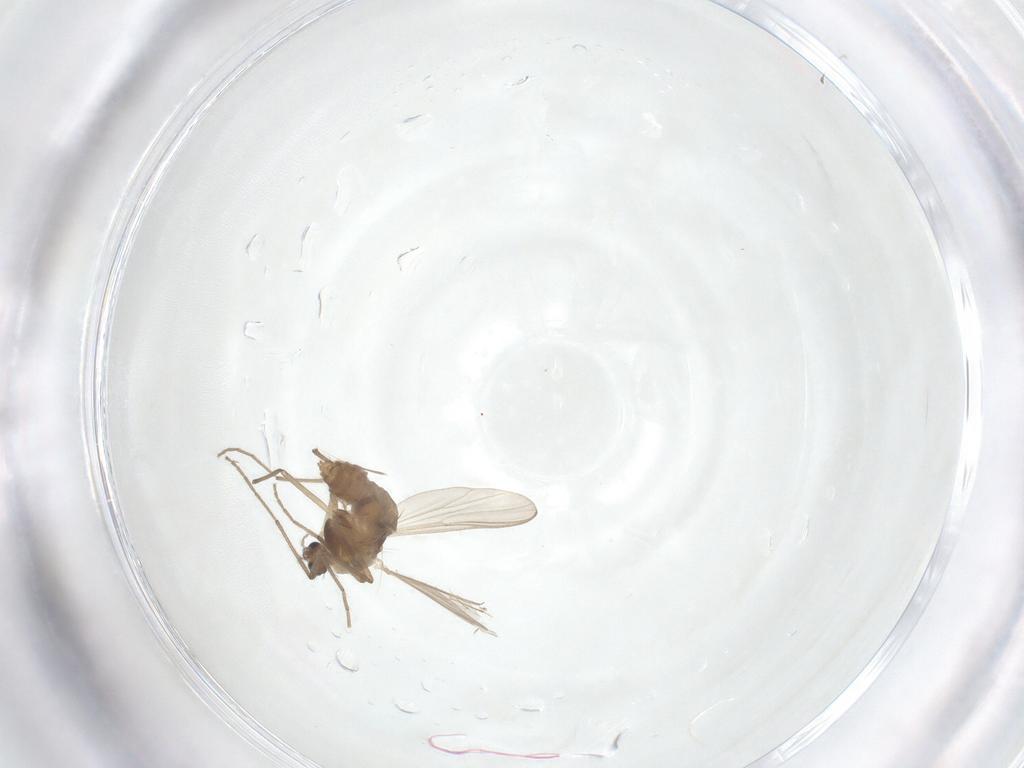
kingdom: Animalia
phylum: Arthropoda
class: Insecta
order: Diptera
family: Chironomidae
